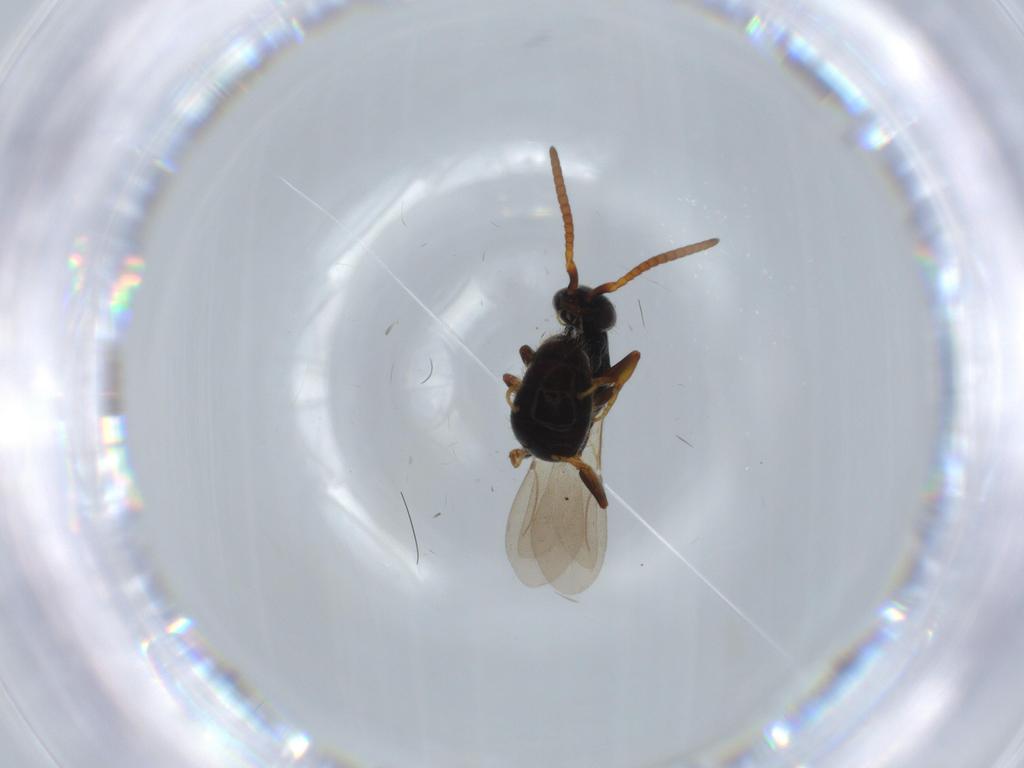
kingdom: Animalia
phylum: Arthropoda
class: Insecta
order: Hymenoptera
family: Bethylidae
